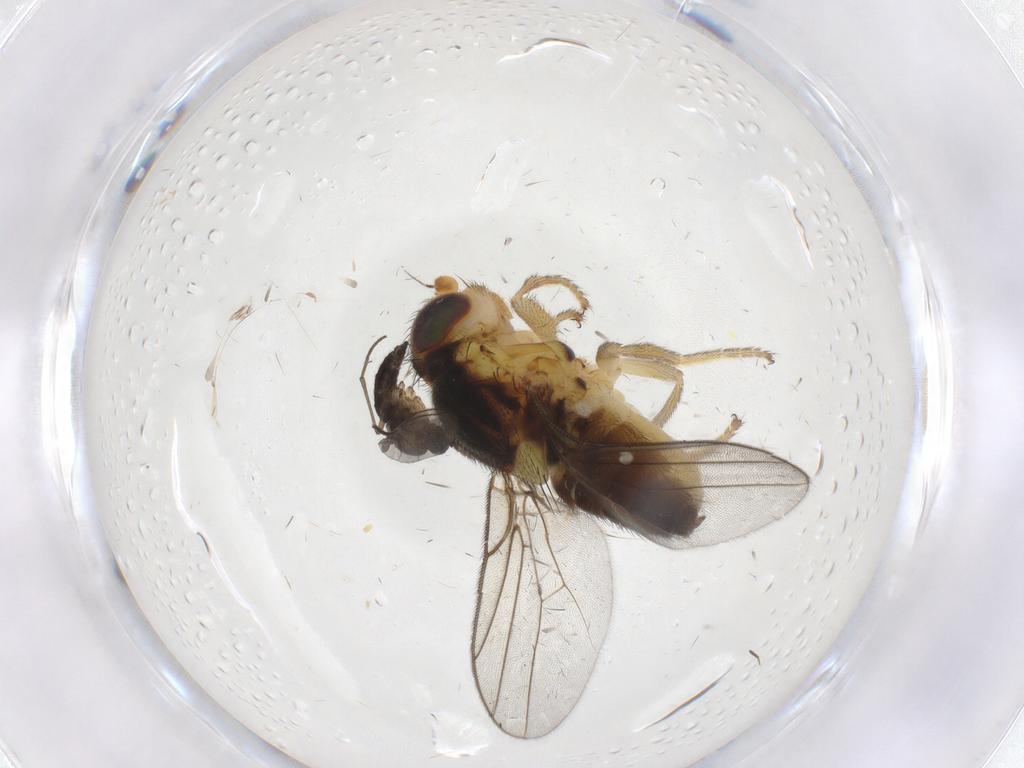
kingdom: Animalia
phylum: Arthropoda
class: Insecta
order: Diptera
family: Chloropidae
